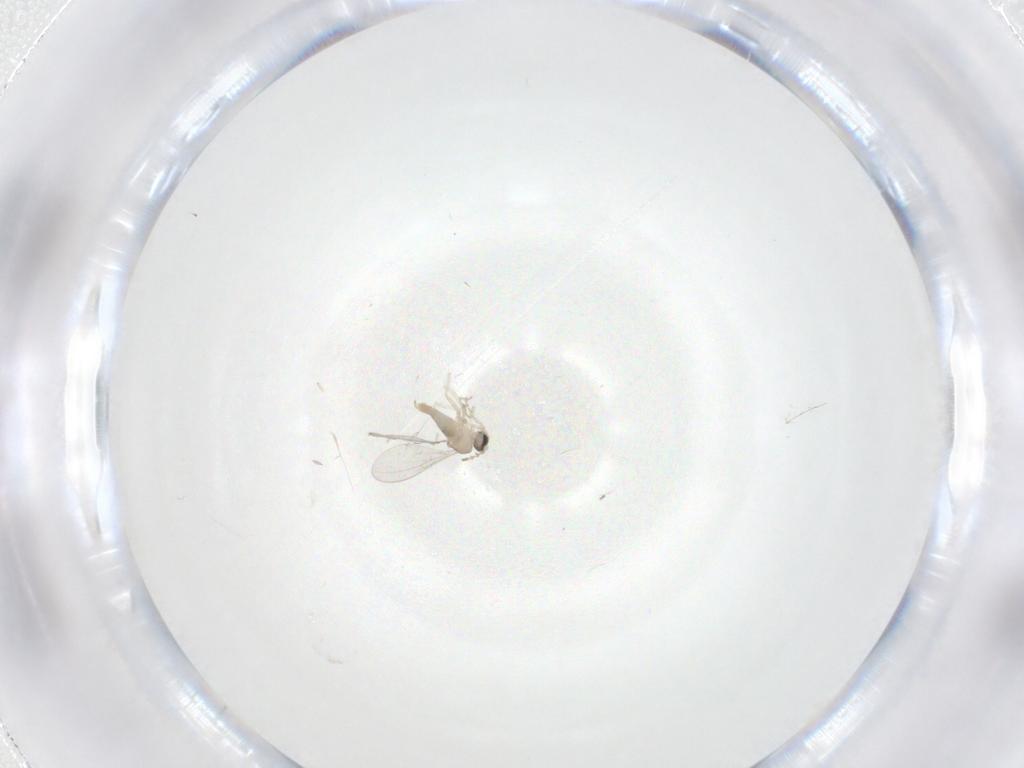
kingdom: Animalia
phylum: Arthropoda
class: Insecta
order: Diptera
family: Cecidomyiidae
